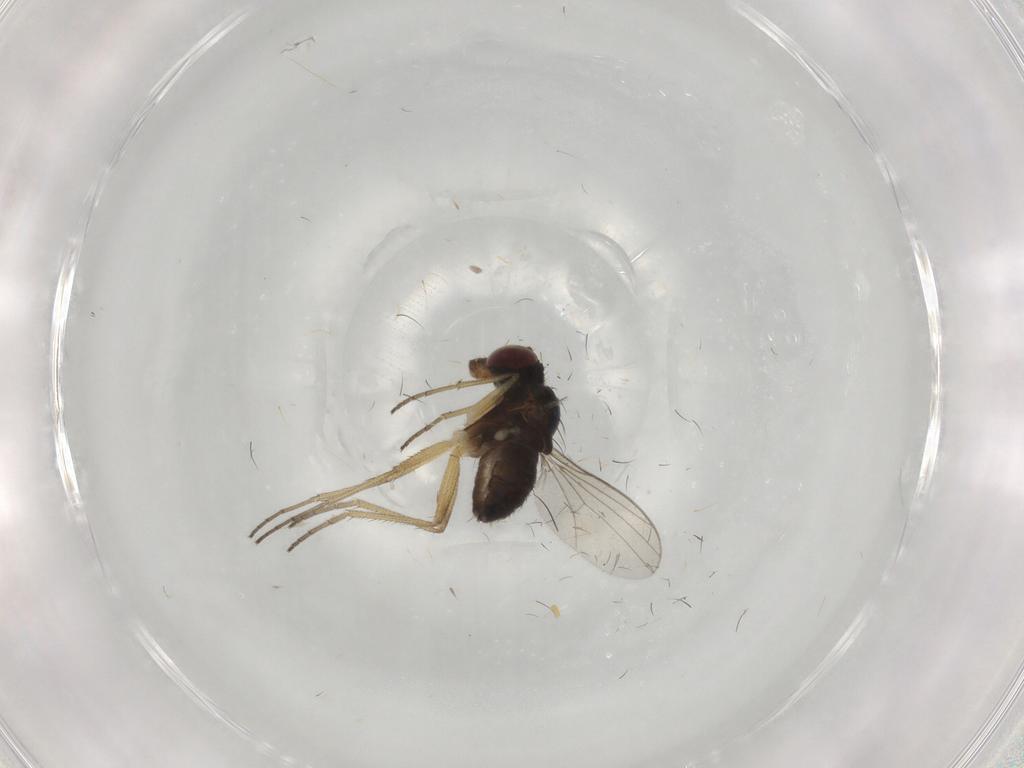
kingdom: Animalia
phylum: Arthropoda
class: Insecta
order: Diptera
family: Dolichopodidae
